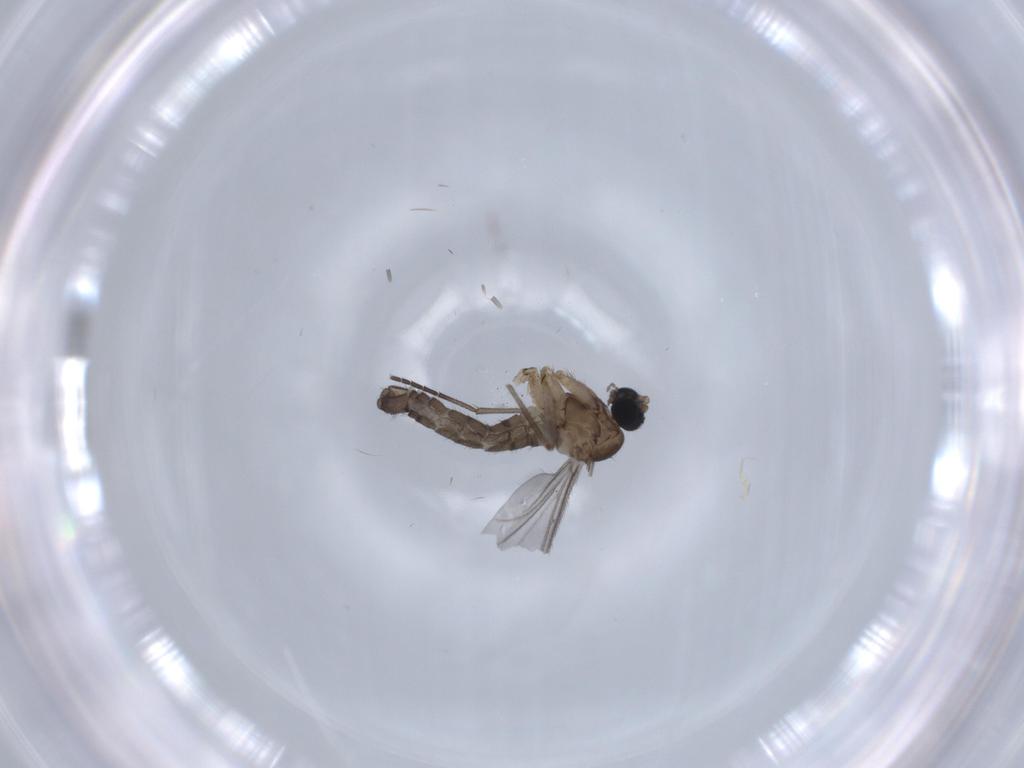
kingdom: Animalia
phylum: Arthropoda
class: Insecta
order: Diptera
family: Sciaridae
